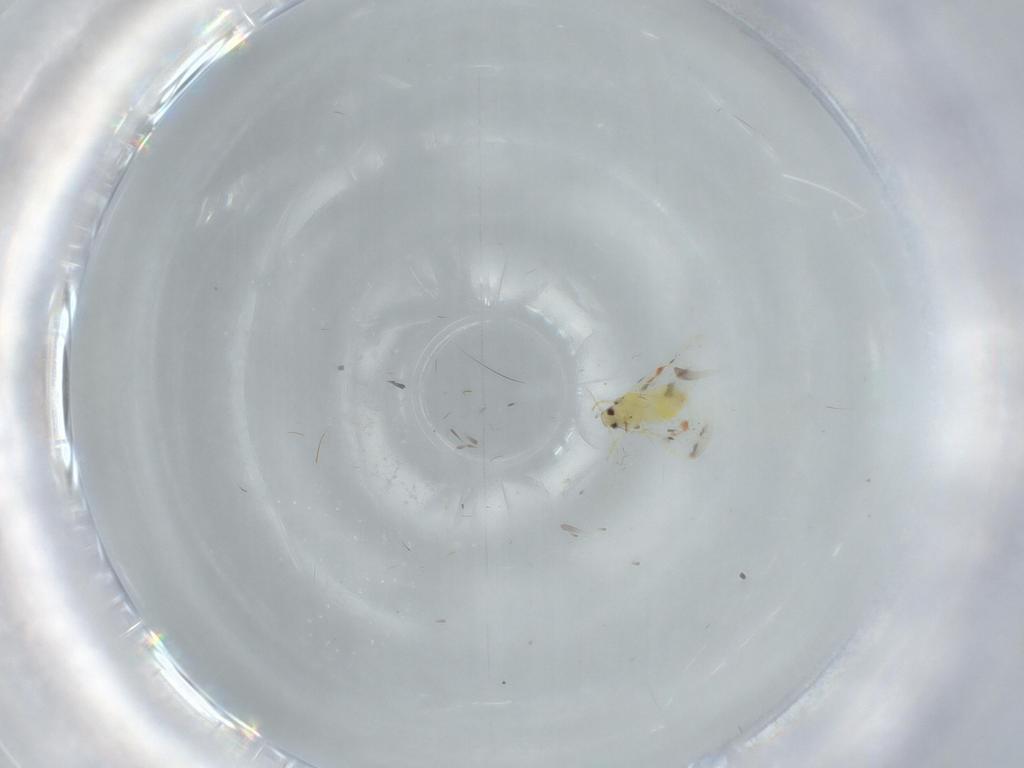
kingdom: Animalia
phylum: Arthropoda
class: Insecta
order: Hemiptera
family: Aleyrodidae
